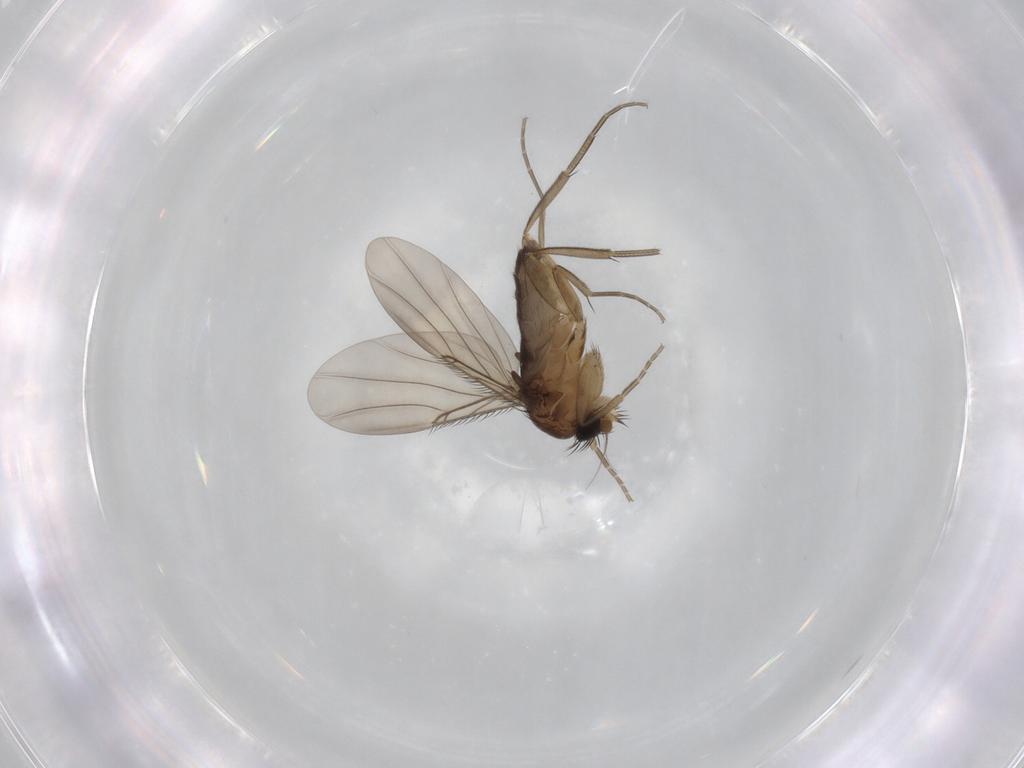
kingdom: Animalia
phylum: Arthropoda
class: Insecta
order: Diptera
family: Phoridae
